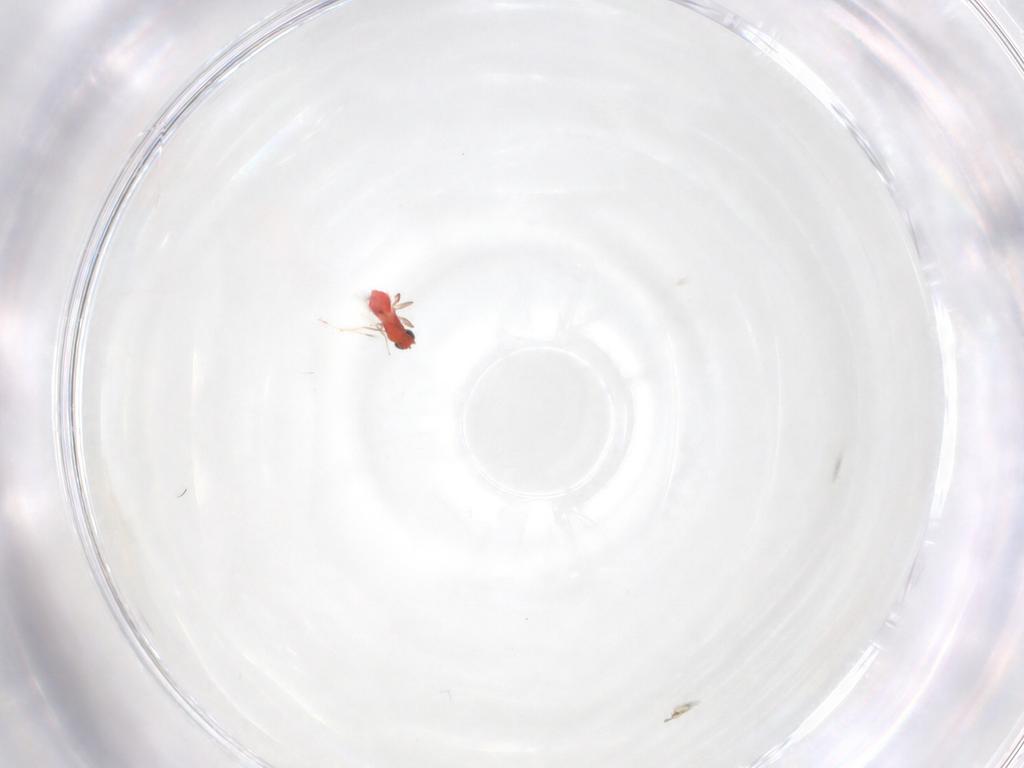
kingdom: Animalia
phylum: Arthropoda
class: Insecta
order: Hymenoptera
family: Trichogrammatidae
